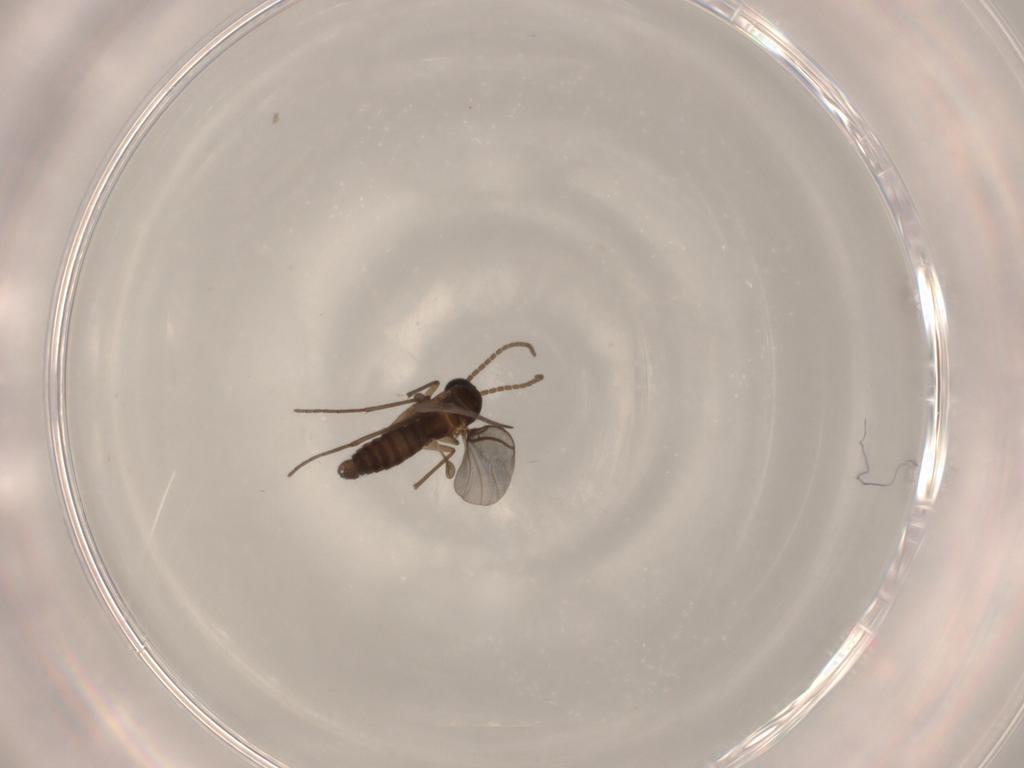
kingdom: Animalia
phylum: Arthropoda
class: Insecta
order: Diptera
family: Sciaridae
